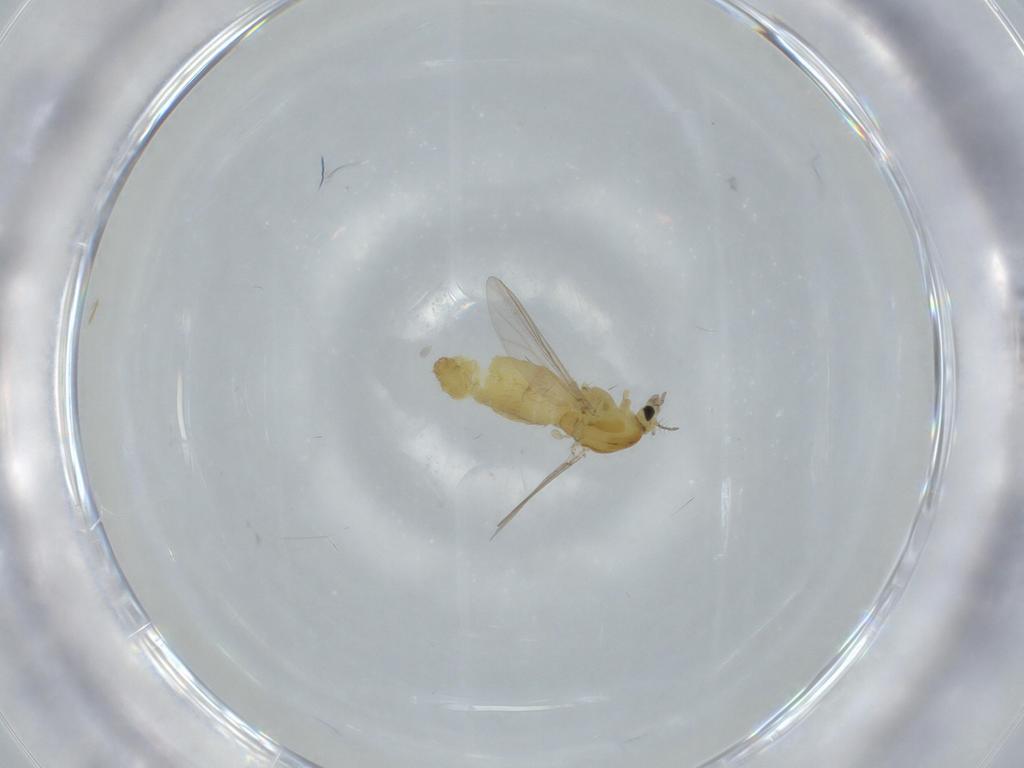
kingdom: Animalia
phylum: Arthropoda
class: Insecta
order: Diptera
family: Chironomidae
